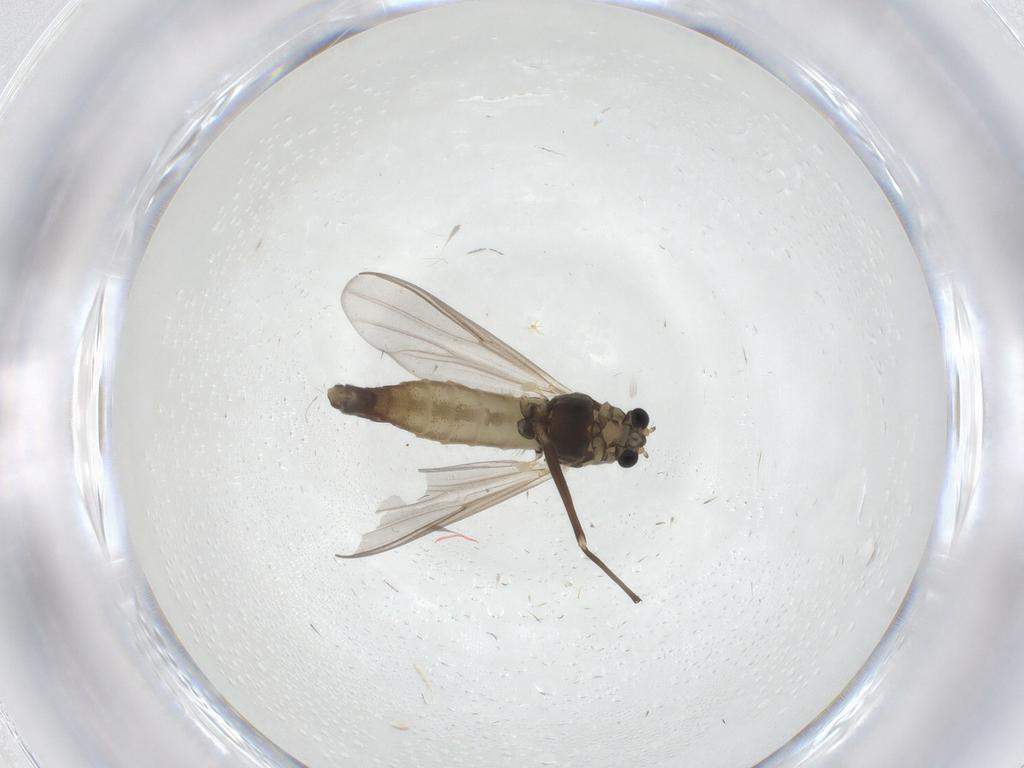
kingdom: Animalia
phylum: Arthropoda
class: Insecta
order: Diptera
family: Chironomidae
